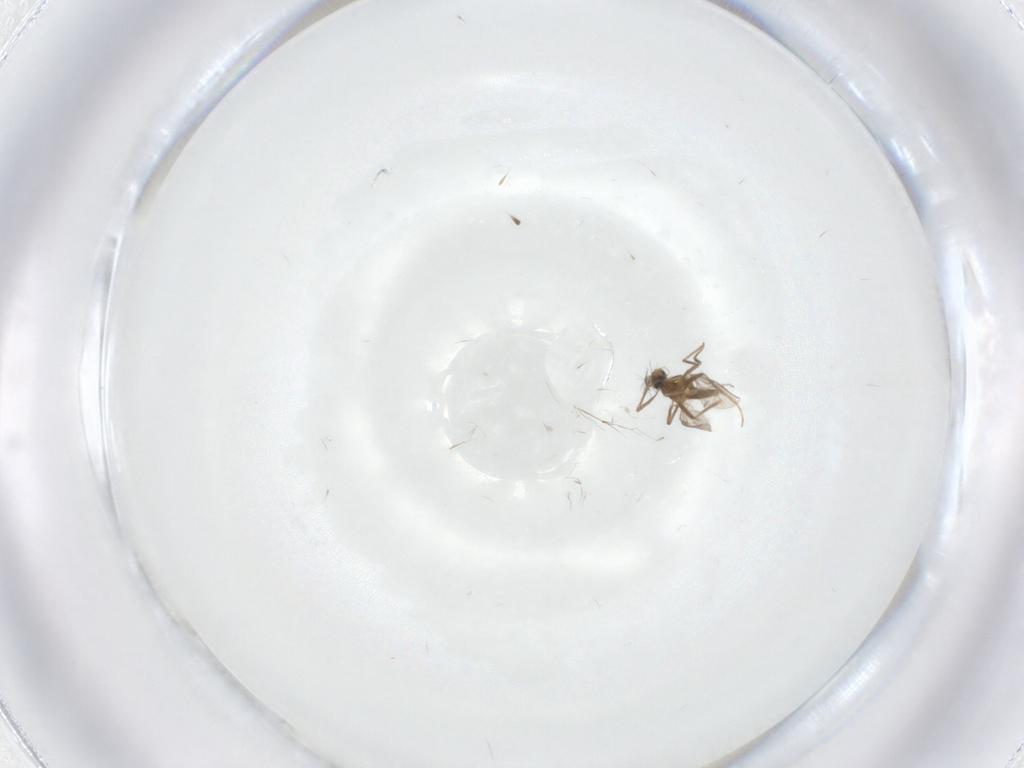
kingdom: Animalia
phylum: Arthropoda
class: Insecta
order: Diptera
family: Chironomidae
